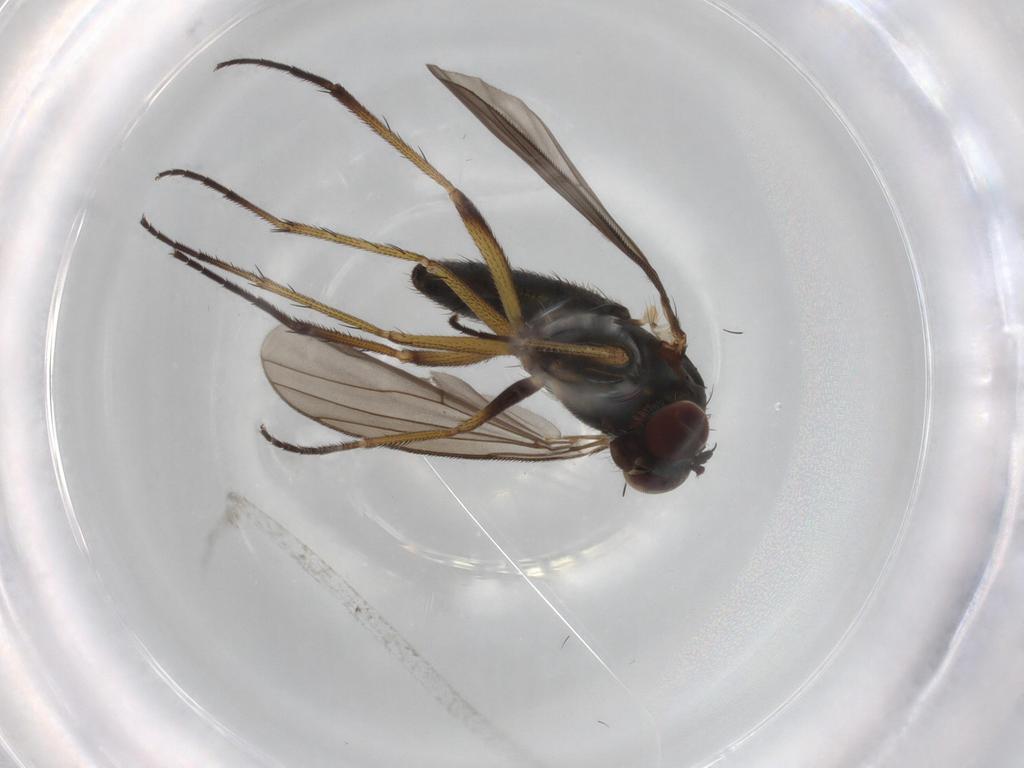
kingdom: Animalia
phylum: Arthropoda
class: Insecta
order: Diptera
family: Dolichopodidae
